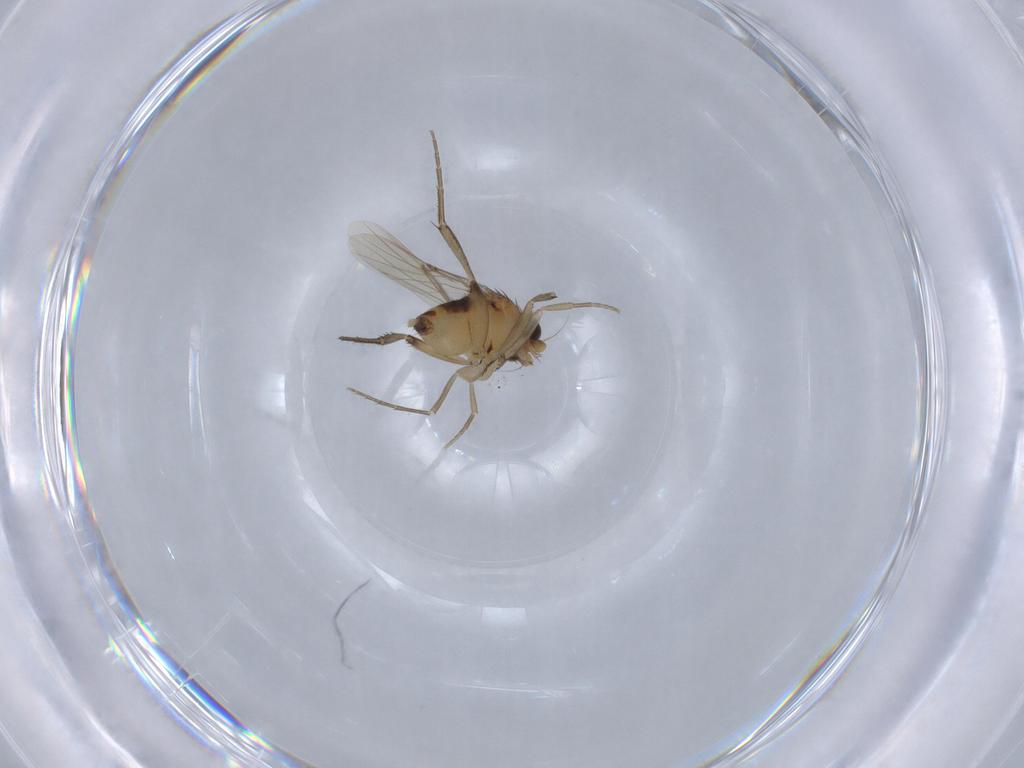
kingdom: Animalia
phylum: Arthropoda
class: Insecta
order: Diptera
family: Phoridae
